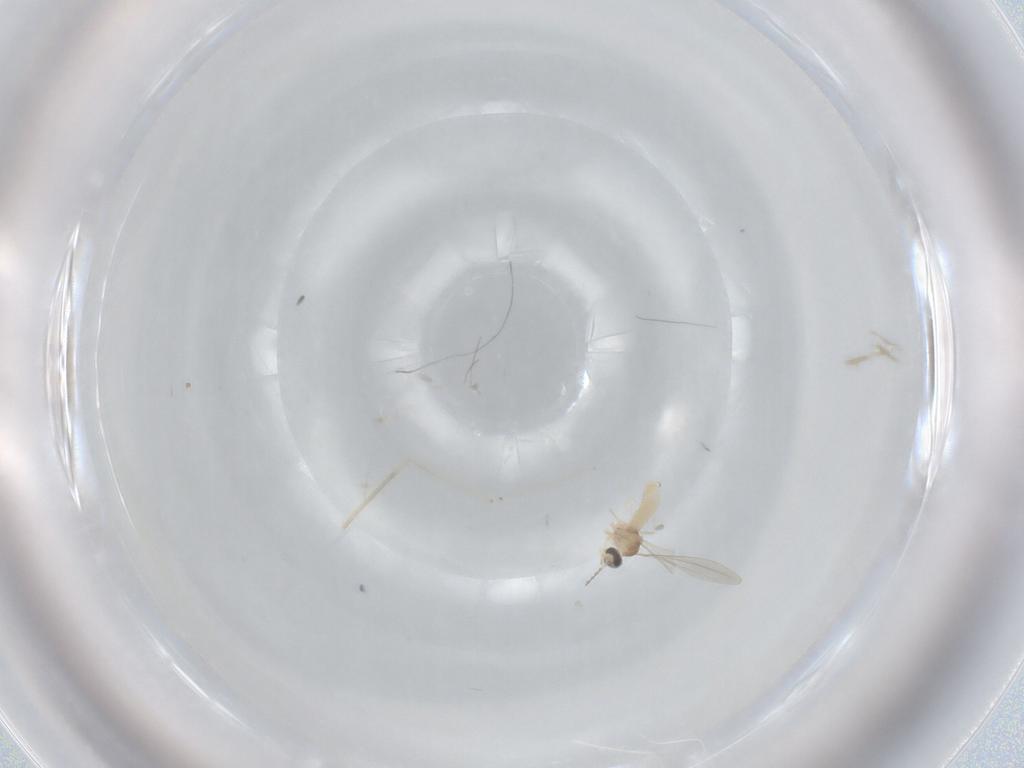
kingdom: Animalia
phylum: Arthropoda
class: Insecta
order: Diptera
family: Cecidomyiidae
